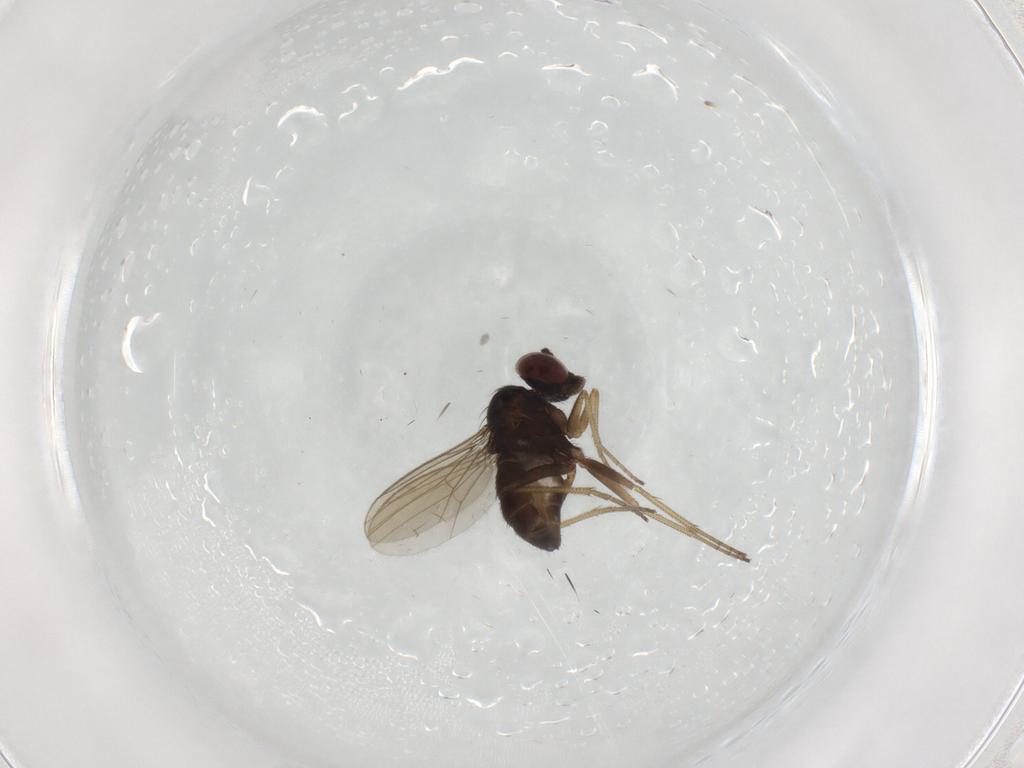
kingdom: Animalia
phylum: Arthropoda
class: Insecta
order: Diptera
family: Dolichopodidae
